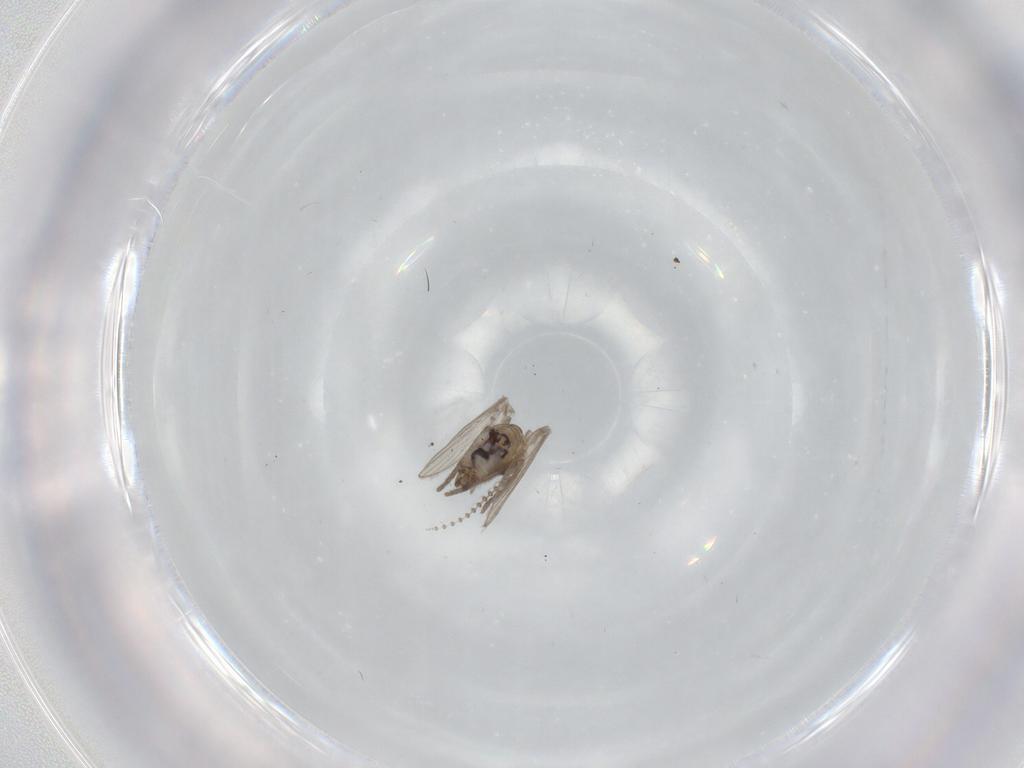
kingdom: Animalia
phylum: Arthropoda
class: Insecta
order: Diptera
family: Psychodidae
